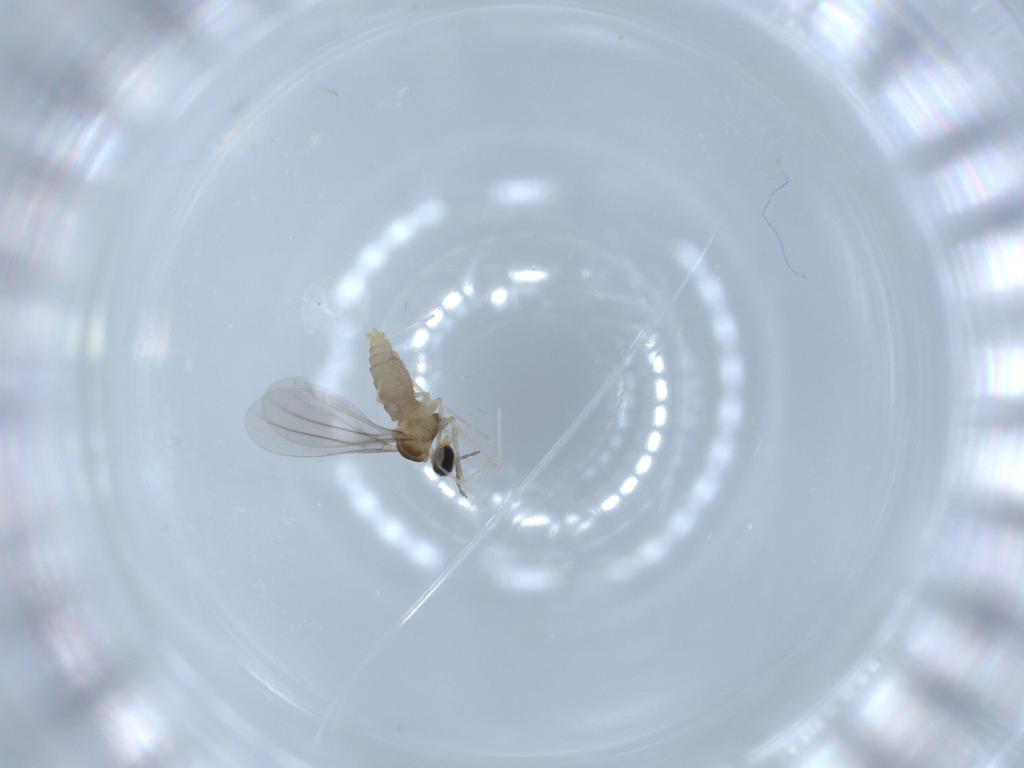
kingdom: Animalia
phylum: Arthropoda
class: Insecta
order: Diptera
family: Cecidomyiidae
